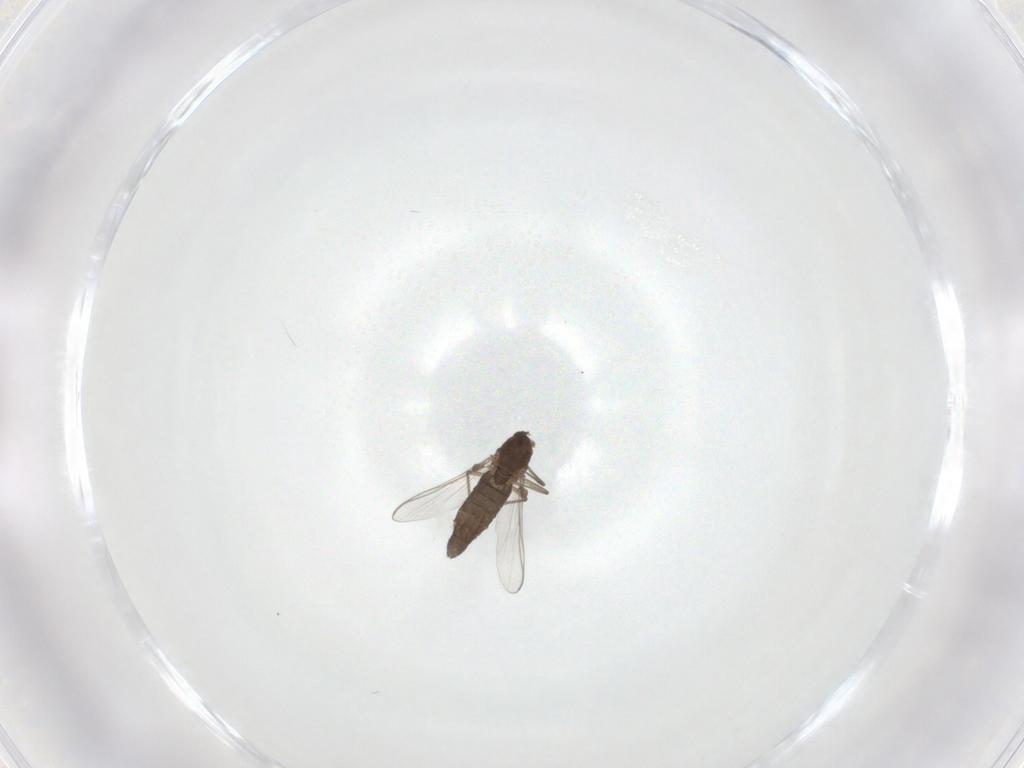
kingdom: Animalia
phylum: Arthropoda
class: Insecta
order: Diptera
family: Chironomidae
